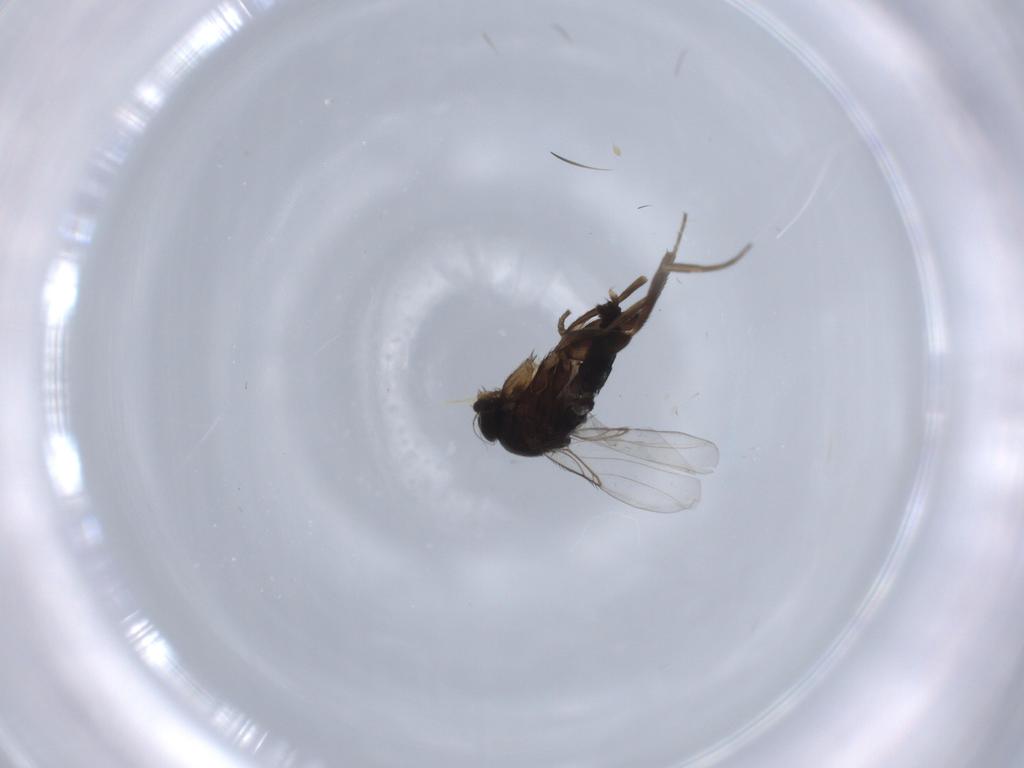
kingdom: Animalia
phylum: Arthropoda
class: Insecta
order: Diptera
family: Phoridae
